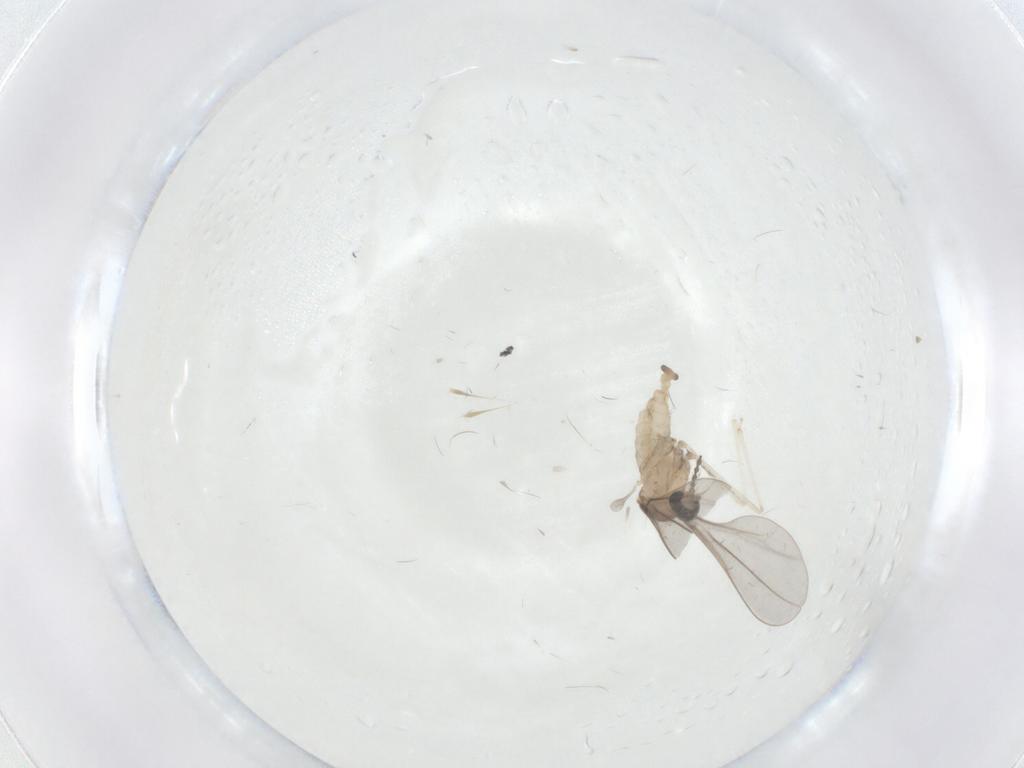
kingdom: Animalia
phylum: Arthropoda
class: Insecta
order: Diptera
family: Cecidomyiidae
